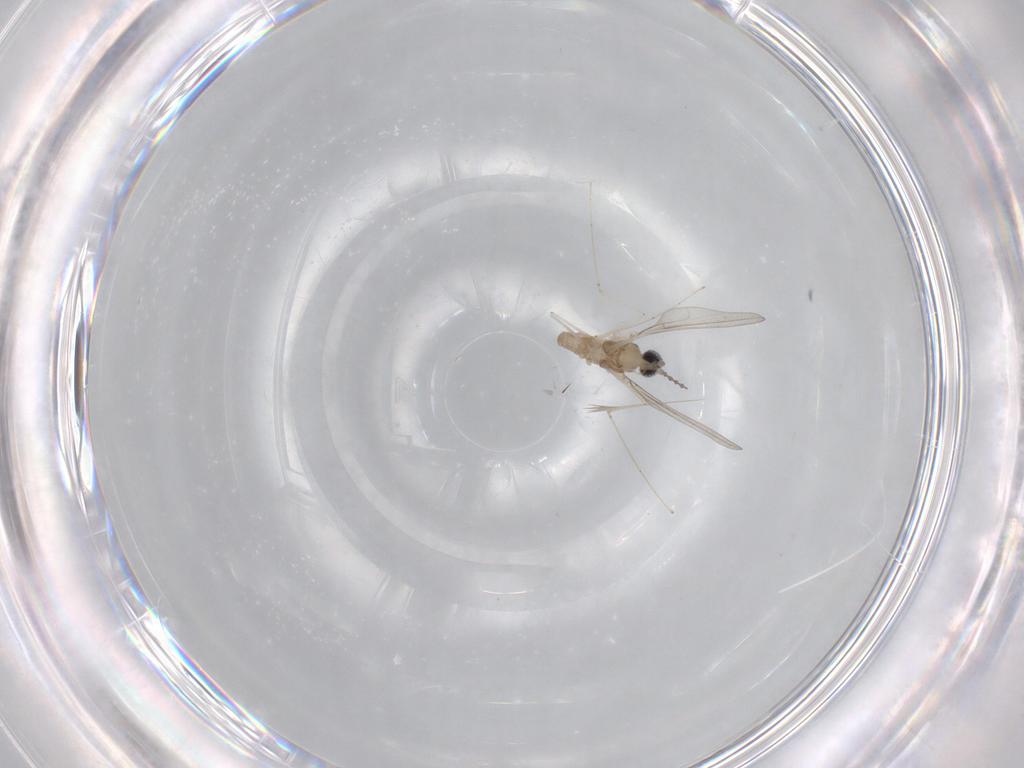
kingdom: Animalia
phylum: Arthropoda
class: Insecta
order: Diptera
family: Cecidomyiidae
